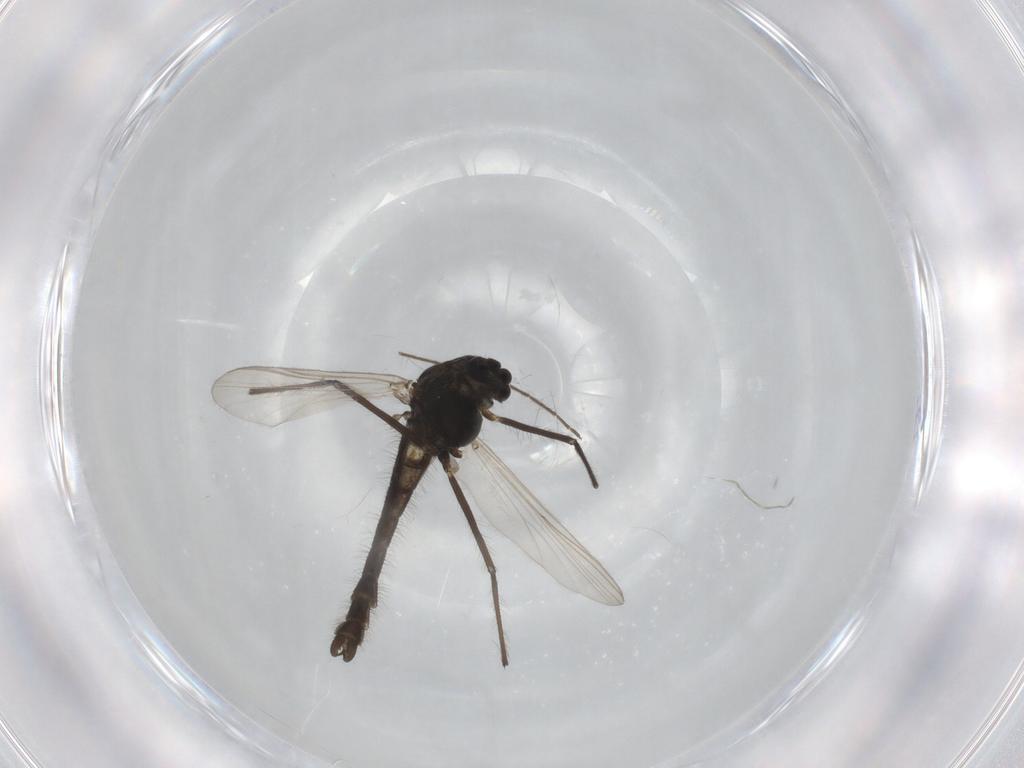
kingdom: Animalia
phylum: Arthropoda
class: Insecta
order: Diptera
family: Chironomidae
